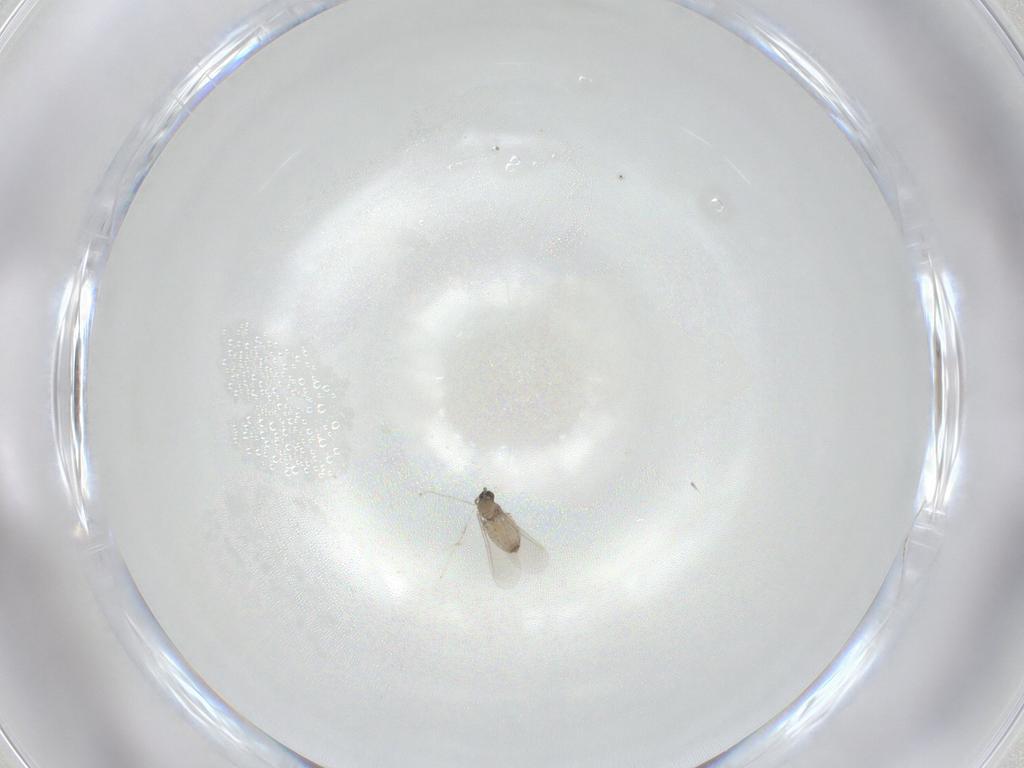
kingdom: Animalia
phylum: Arthropoda
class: Insecta
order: Diptera
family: Cecidomyiidae
